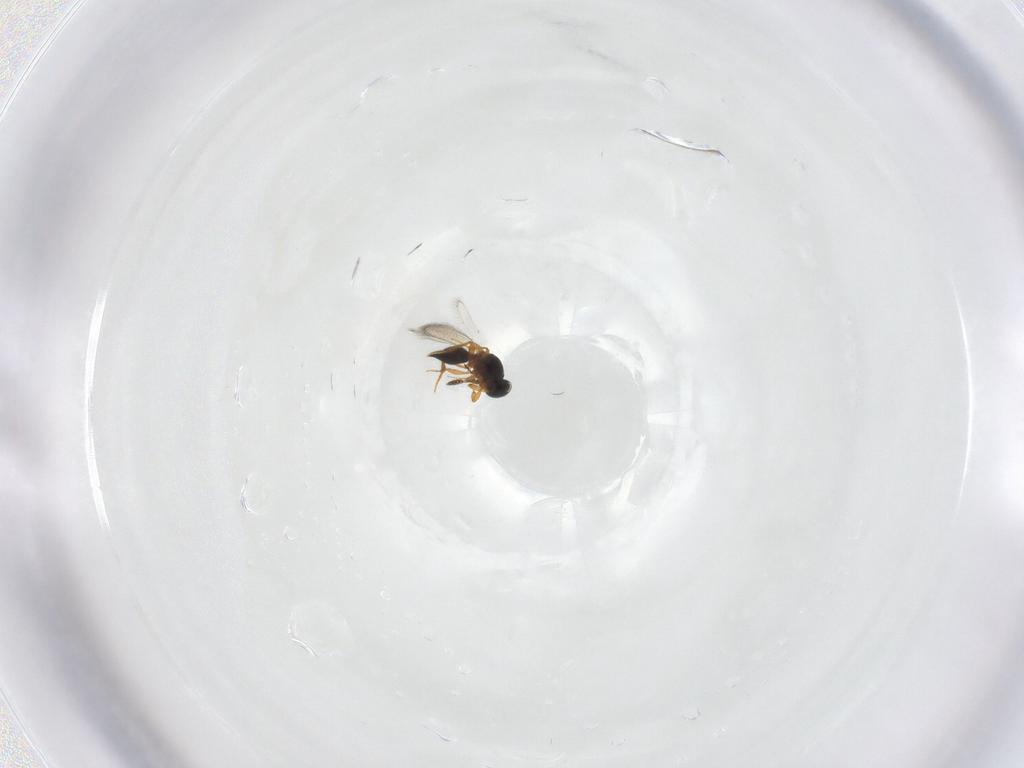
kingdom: Animalia
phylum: Arthropoda
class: Insecta
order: Hymenoptera
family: Platygastridae
